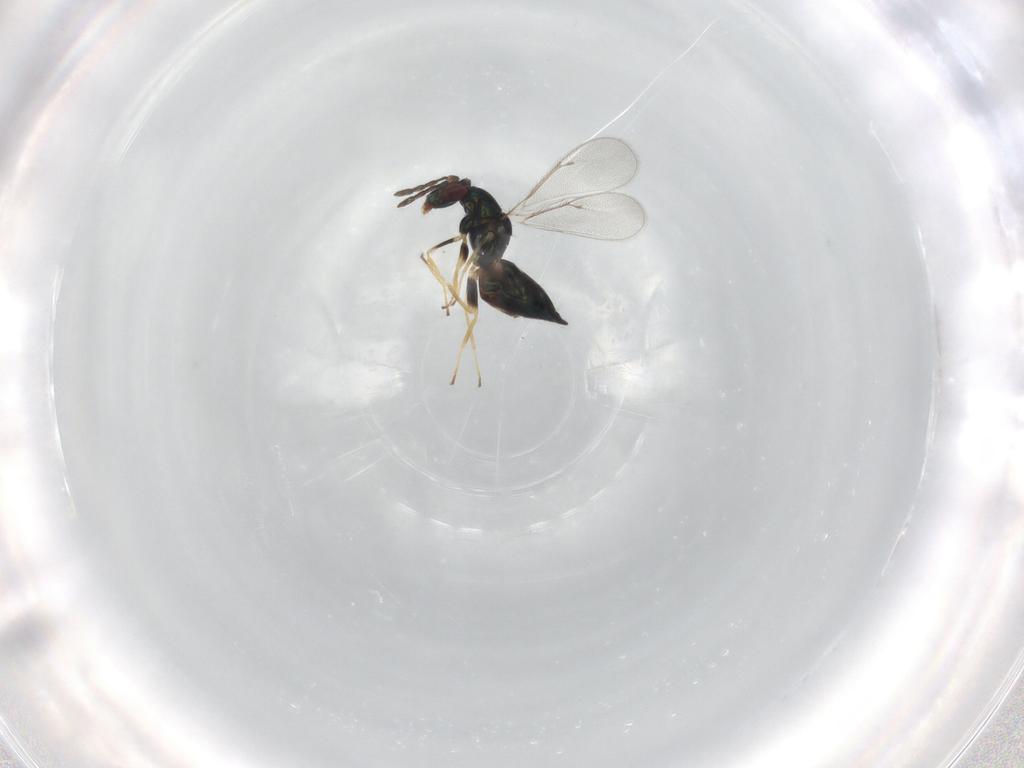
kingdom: Animalia
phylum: Arthropoda
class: Insecta
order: Hymenoptera
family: Eulophidae
